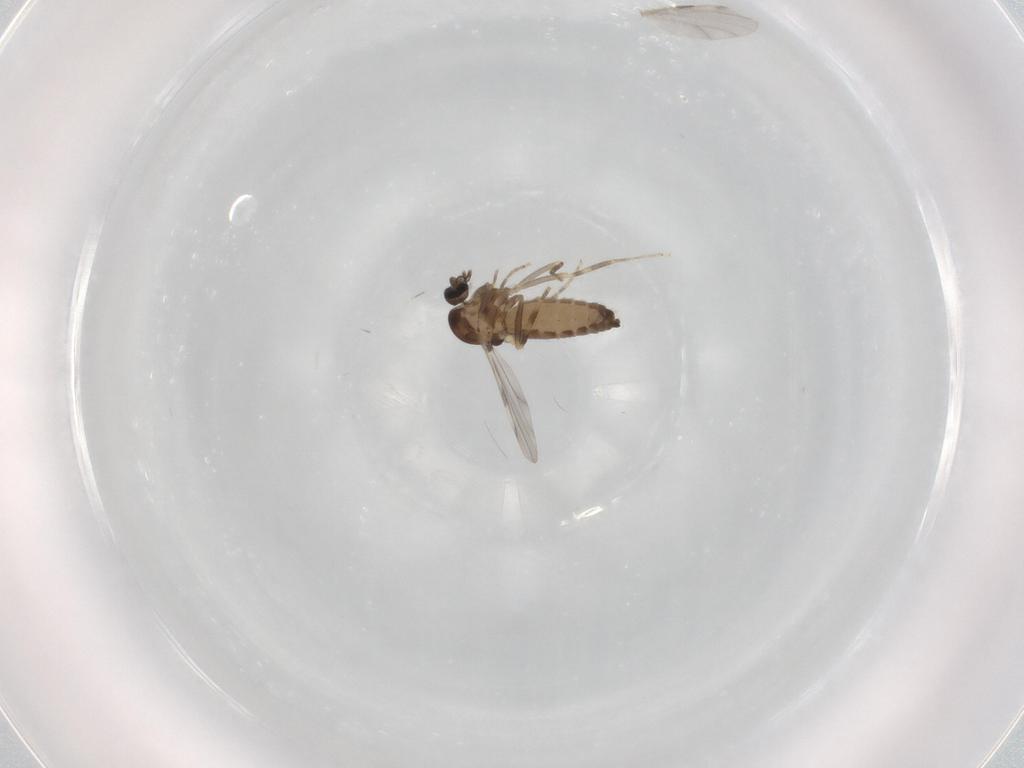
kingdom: Animalia
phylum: Arthropoda
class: Insecta
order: Diptera
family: Ceratopogonidae
